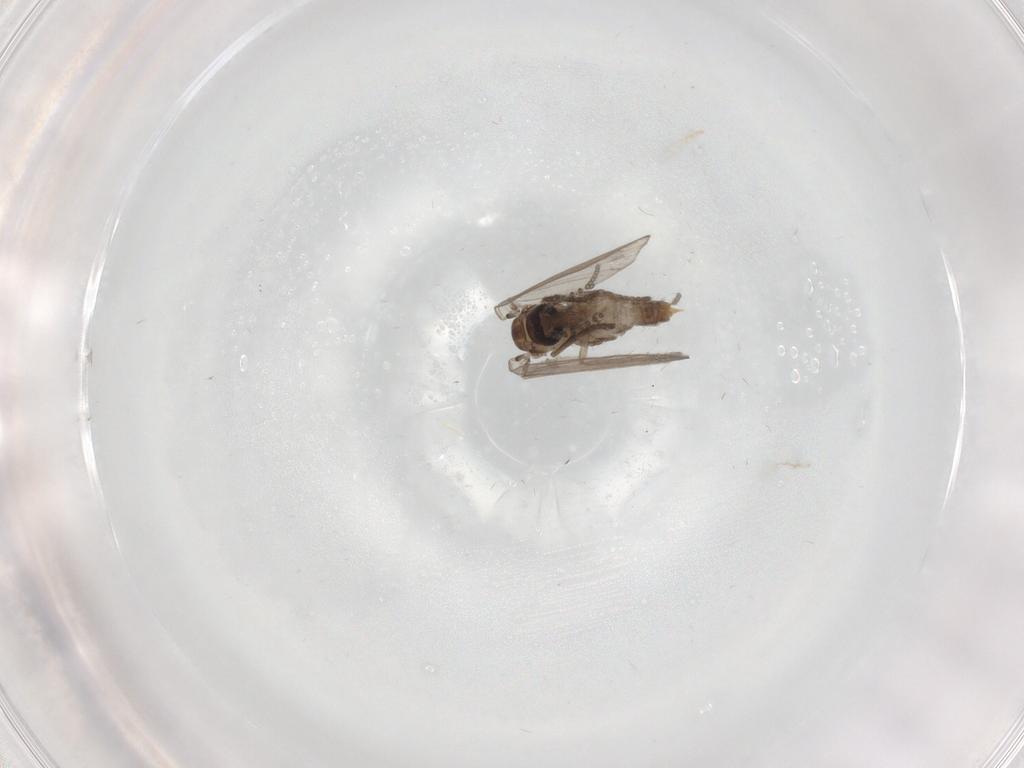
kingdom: Animalia
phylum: Arthropoda
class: Insecta
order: Diptera
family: Psychodidae
